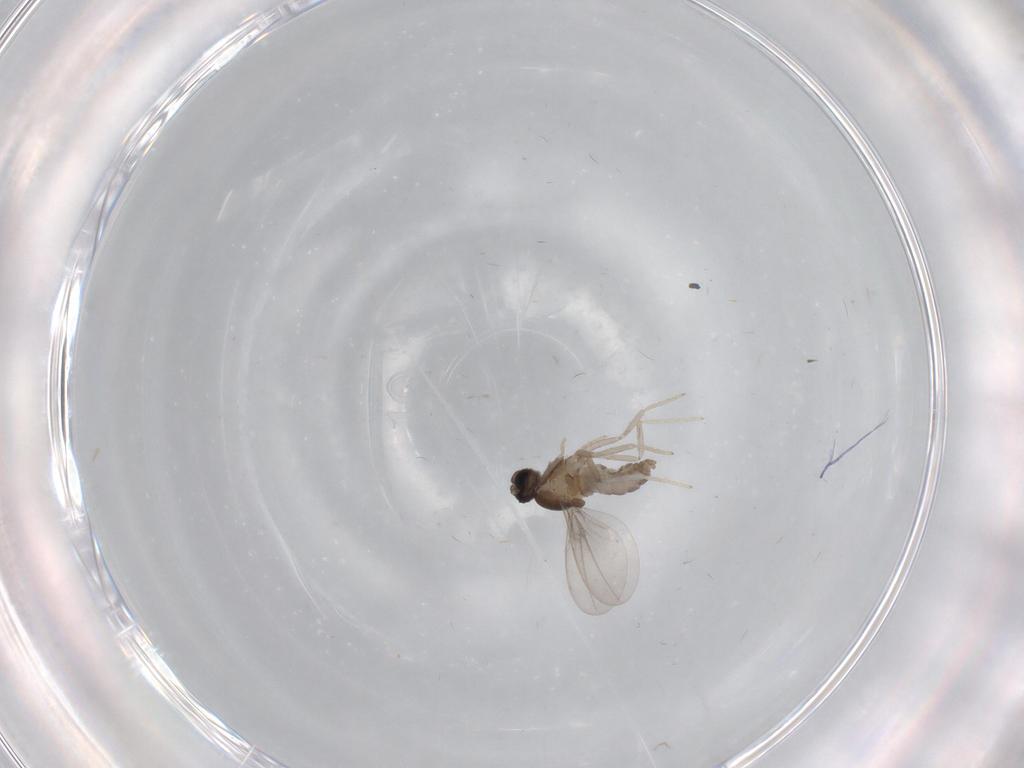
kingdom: Animalia
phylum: Arthropoda
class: Insecta
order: Diptera
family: Cecidomyiidae
